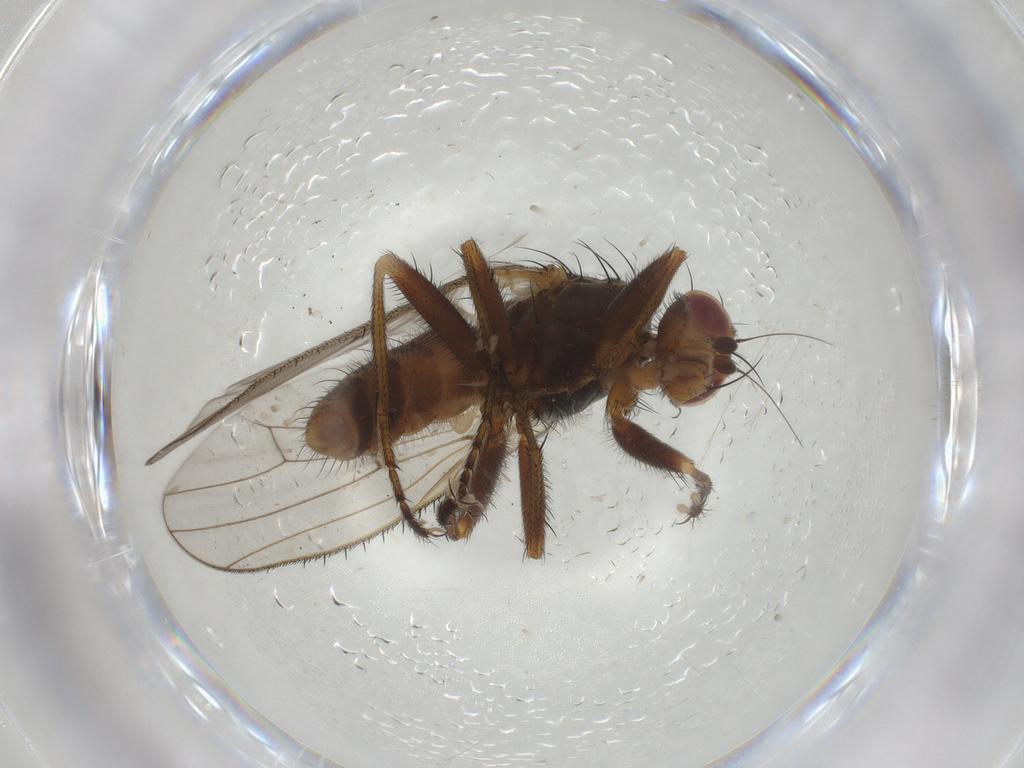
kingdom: Animalia
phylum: Arthropoda
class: Insecta
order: Diptera
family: Heleomyzidae
